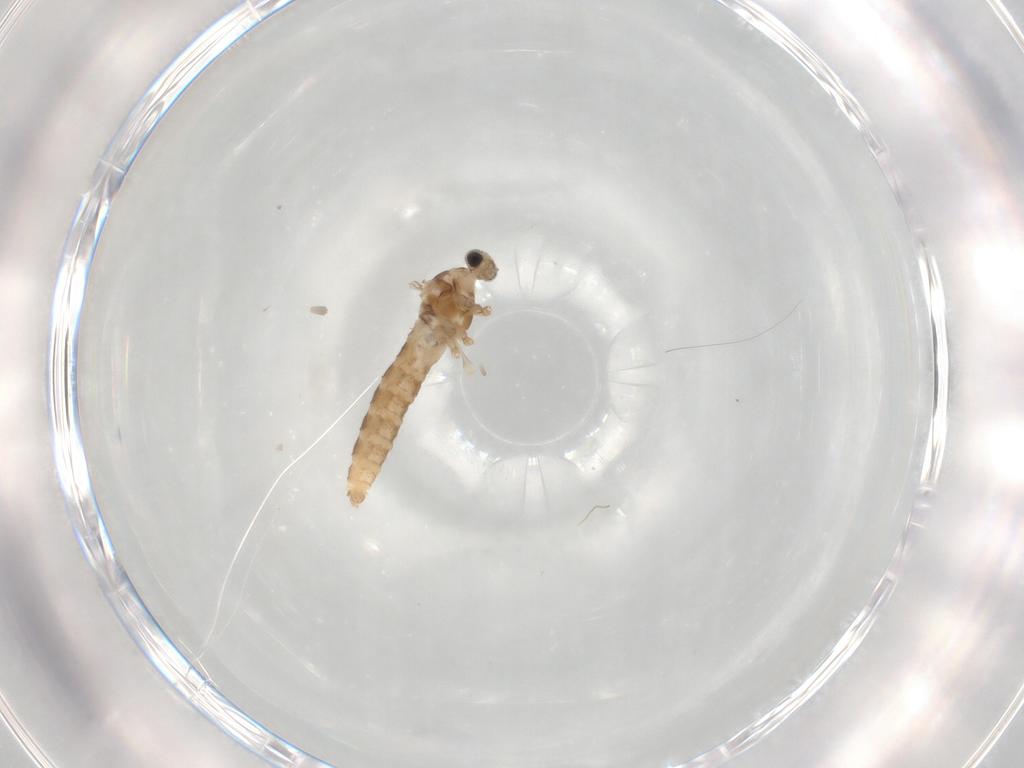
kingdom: Animalia
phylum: Arthropoda
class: Insecta
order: Diptera
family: Cecidomyiidae
